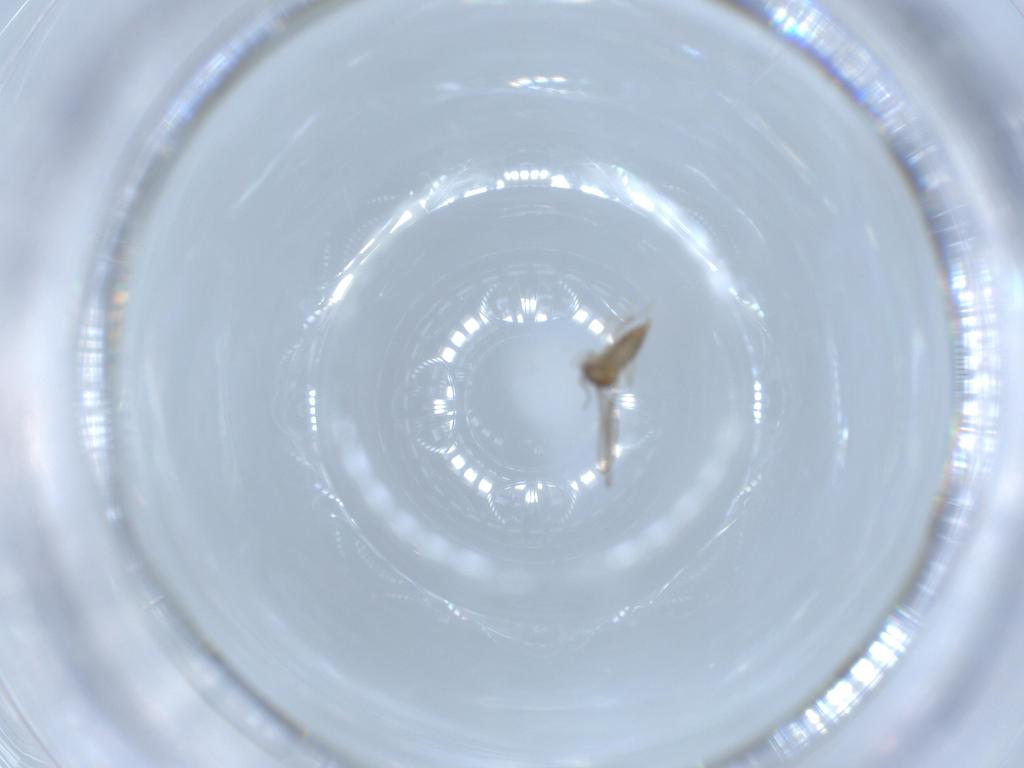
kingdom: Animalia
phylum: Arthropoda
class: Insecta
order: Diptera
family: Cecidomyiidae
